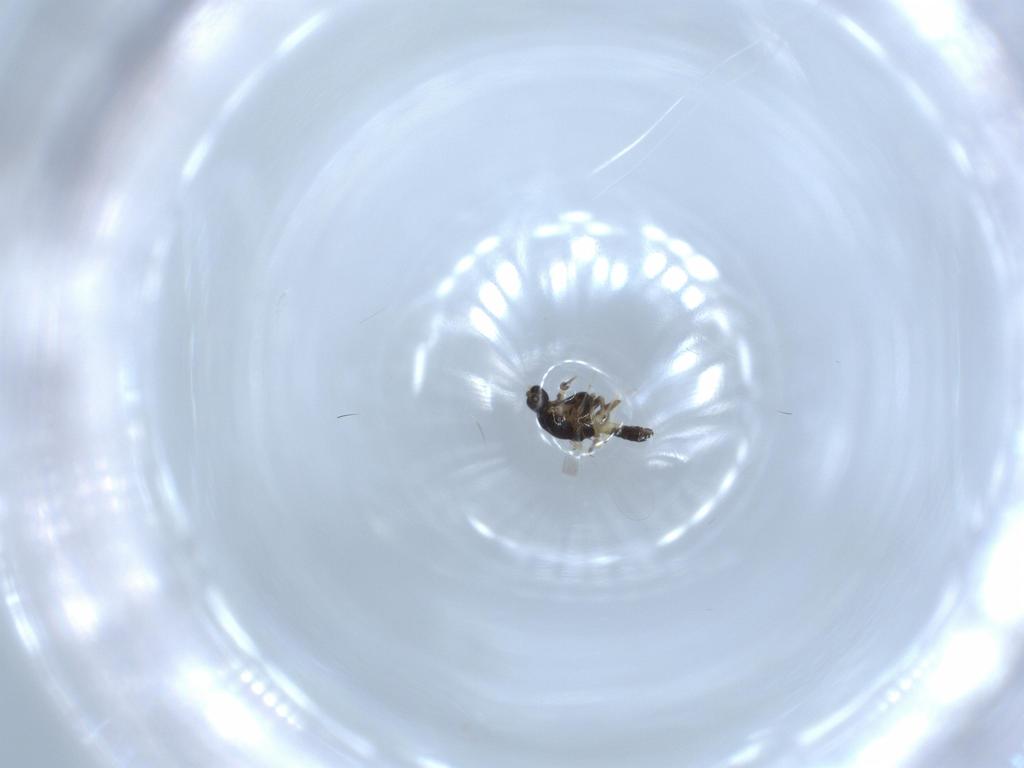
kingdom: Animalia
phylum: Arthropoda
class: Insecta
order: Diptera
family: Chironomidae
